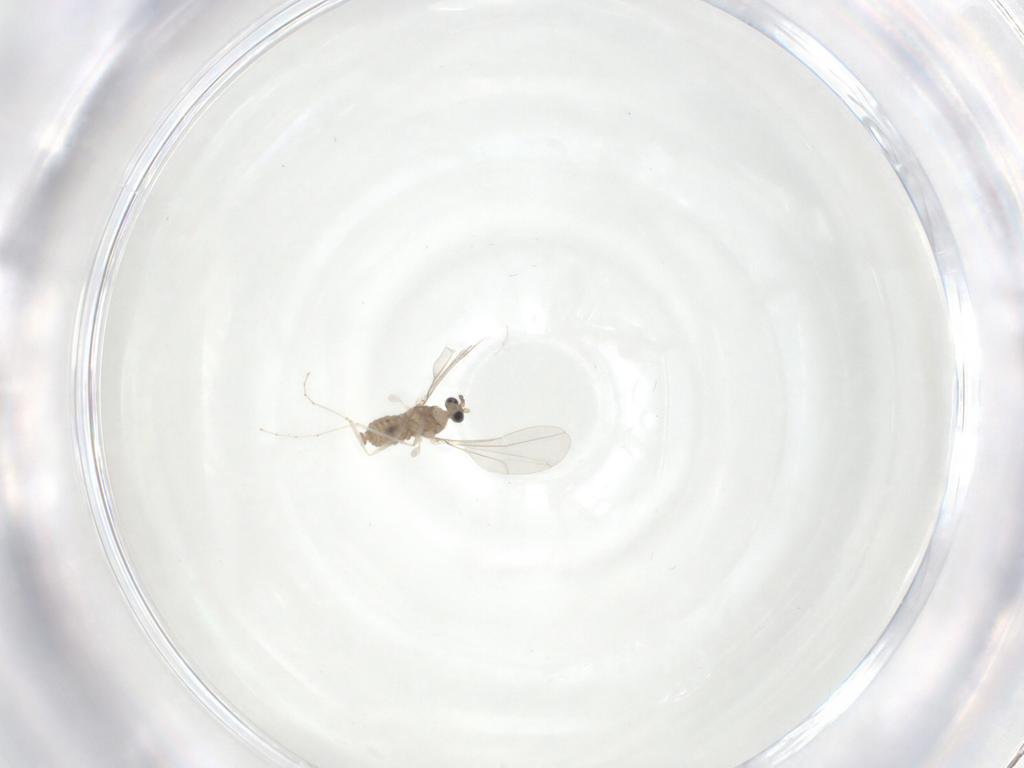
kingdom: Animalia
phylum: Arthropoda
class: Insecta
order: Diptera
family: Cecidomyiidae
